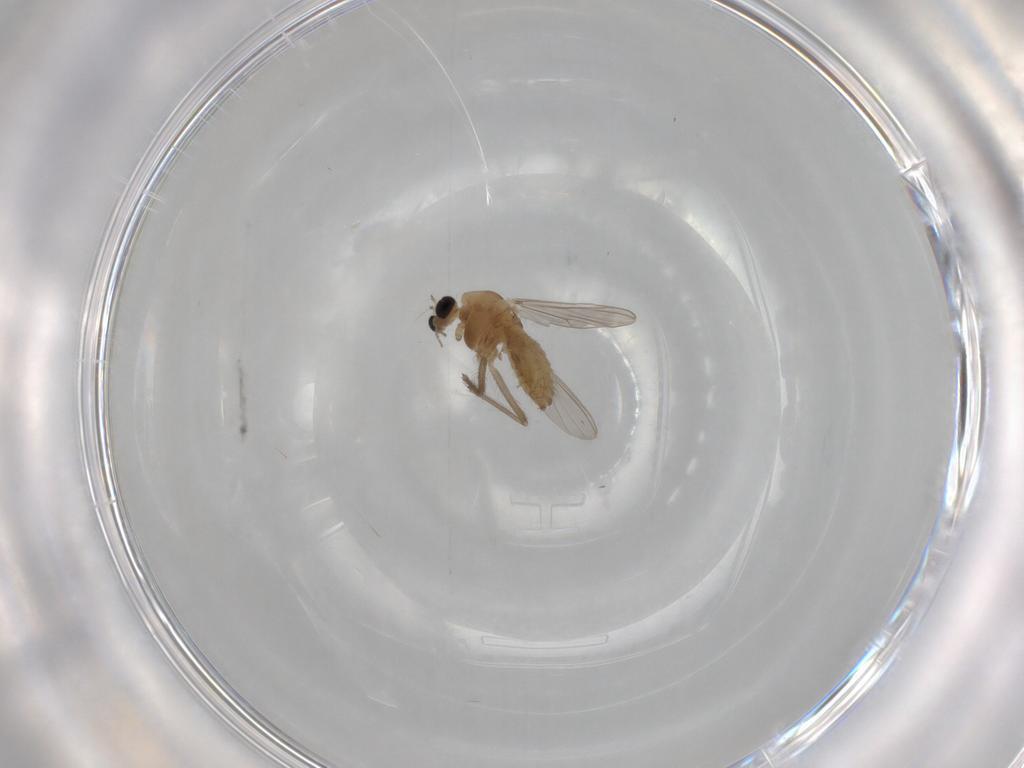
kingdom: Animalia
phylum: Arthropoda
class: Insecta
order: Diptera
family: Chironomidae
